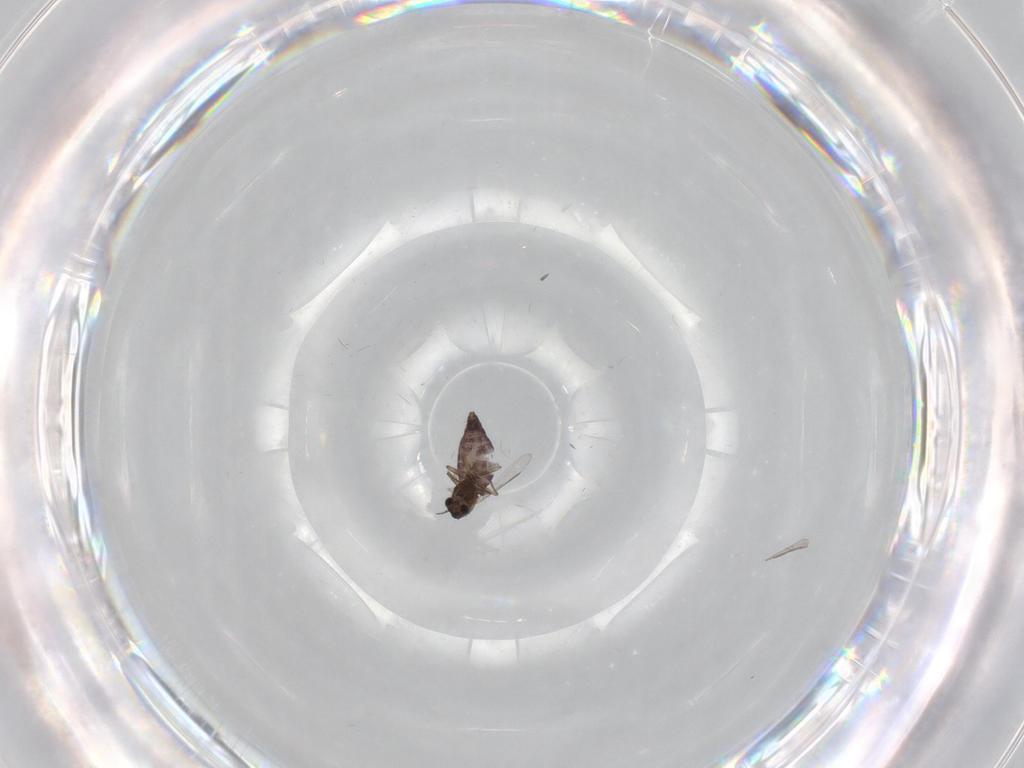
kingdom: Animalia
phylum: Arthropoda
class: Insecta
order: Diptera
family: Chironomidae
